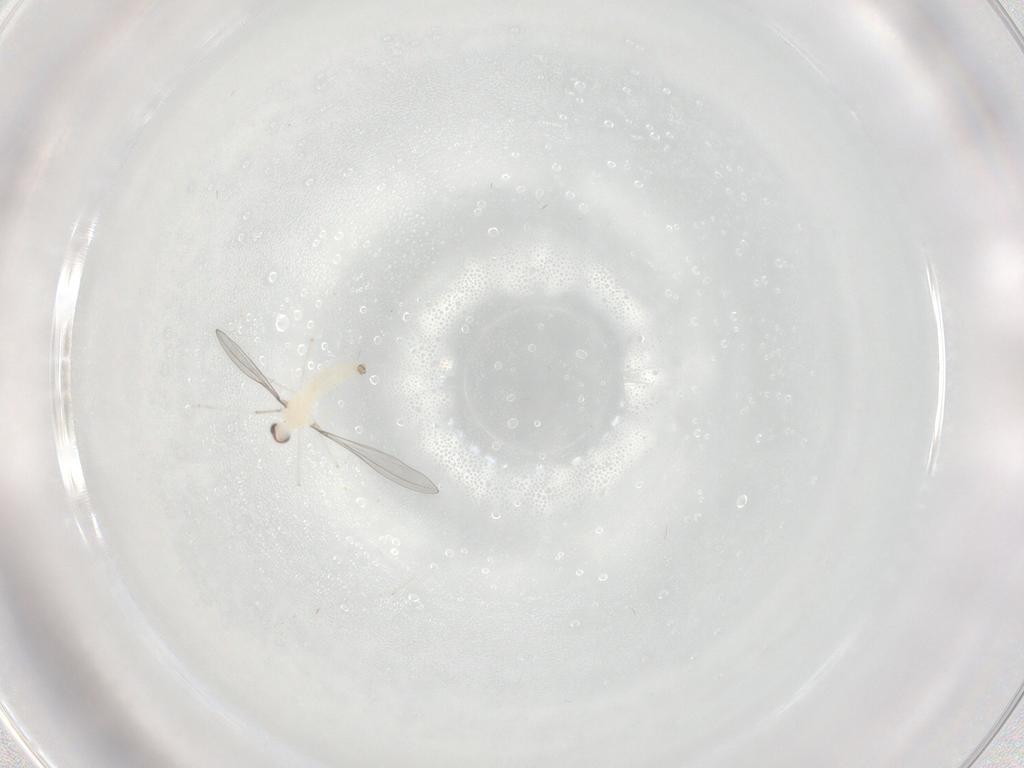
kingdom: Animalia
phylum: Arthropoda
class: Insecta
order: Diptera
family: Cecidomyiidae
